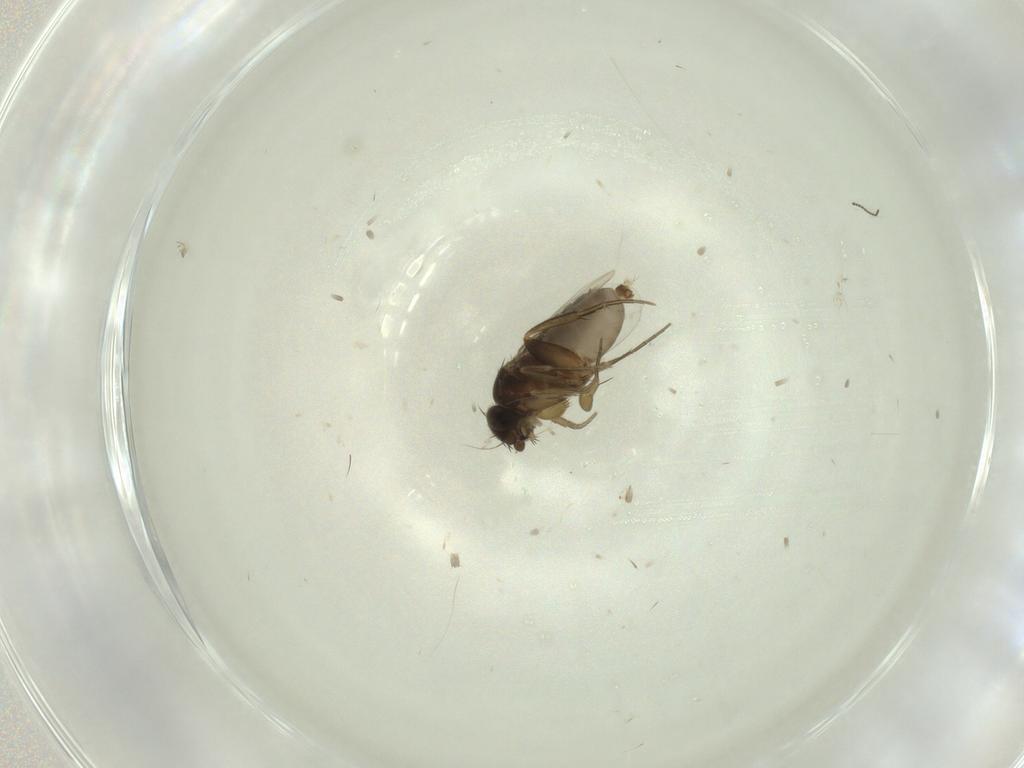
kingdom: Animalia
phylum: Arthropoda
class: Insecta
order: Diptera
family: Phoridae
